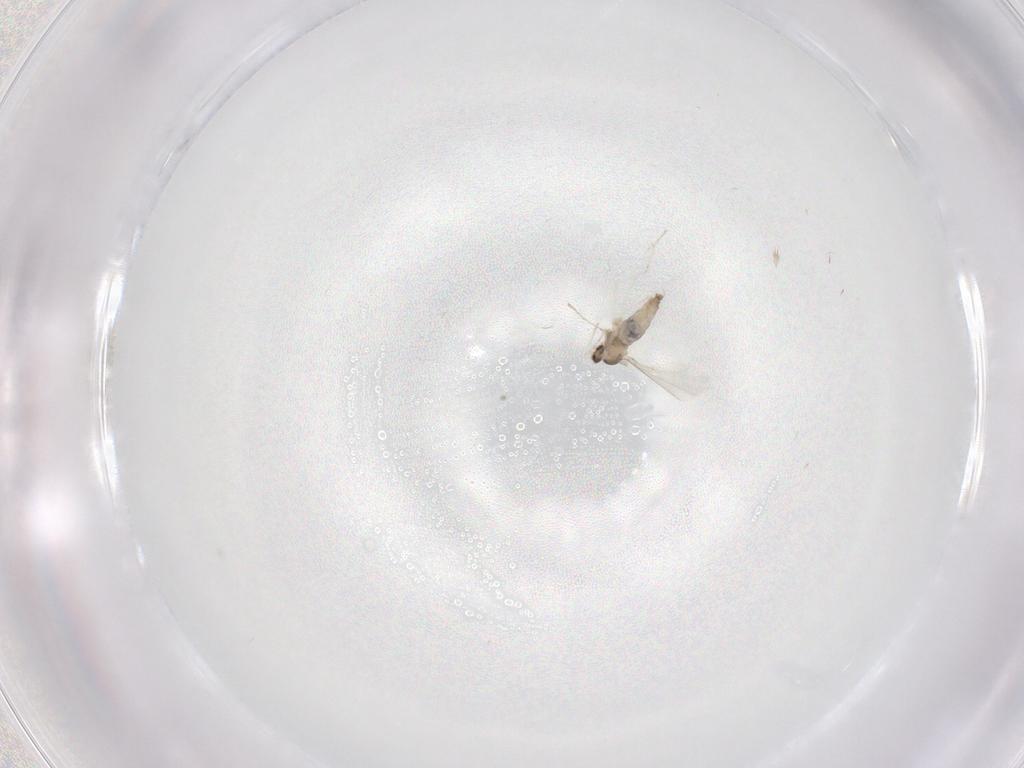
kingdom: Animalia
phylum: Arthropoda
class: Insecta
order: Diptera
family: Cecidomyiidae
